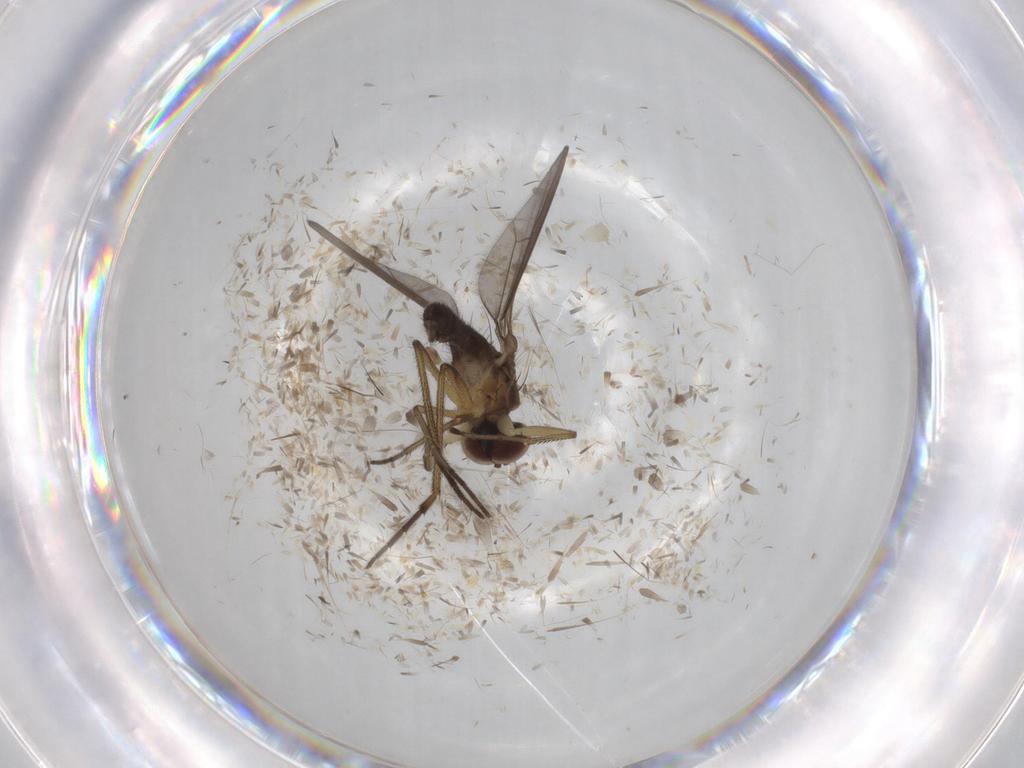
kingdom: Animalia
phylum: Arthropoda
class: Insecta
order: Diptera
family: Dolichopodidae
